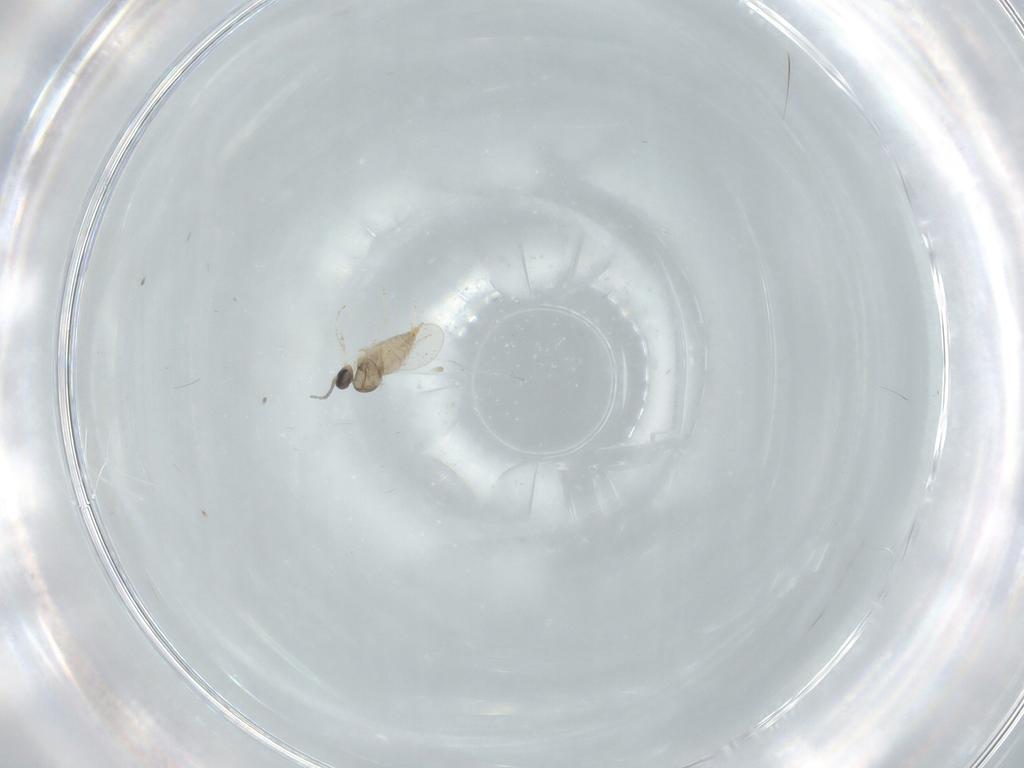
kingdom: Animalia
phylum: Arthropoda
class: Insecta
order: Diptera
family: Cecidomyiidae
